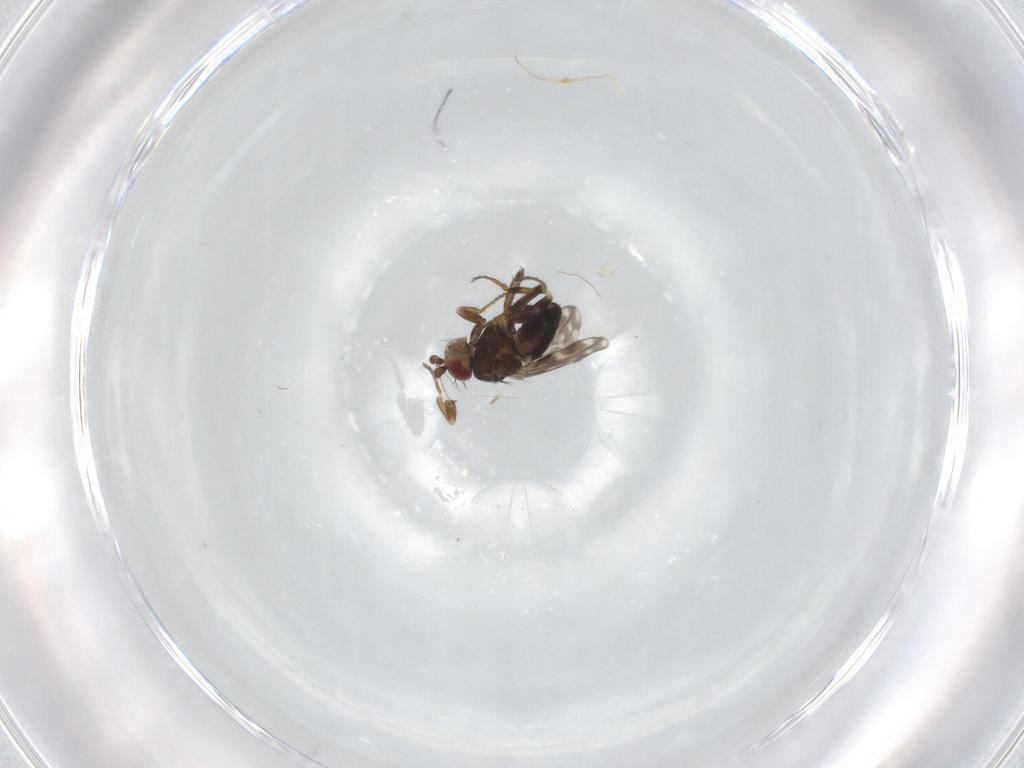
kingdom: Animalia
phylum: Arthropoda
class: Insecta
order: Diptera
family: Sphaeroceridae
